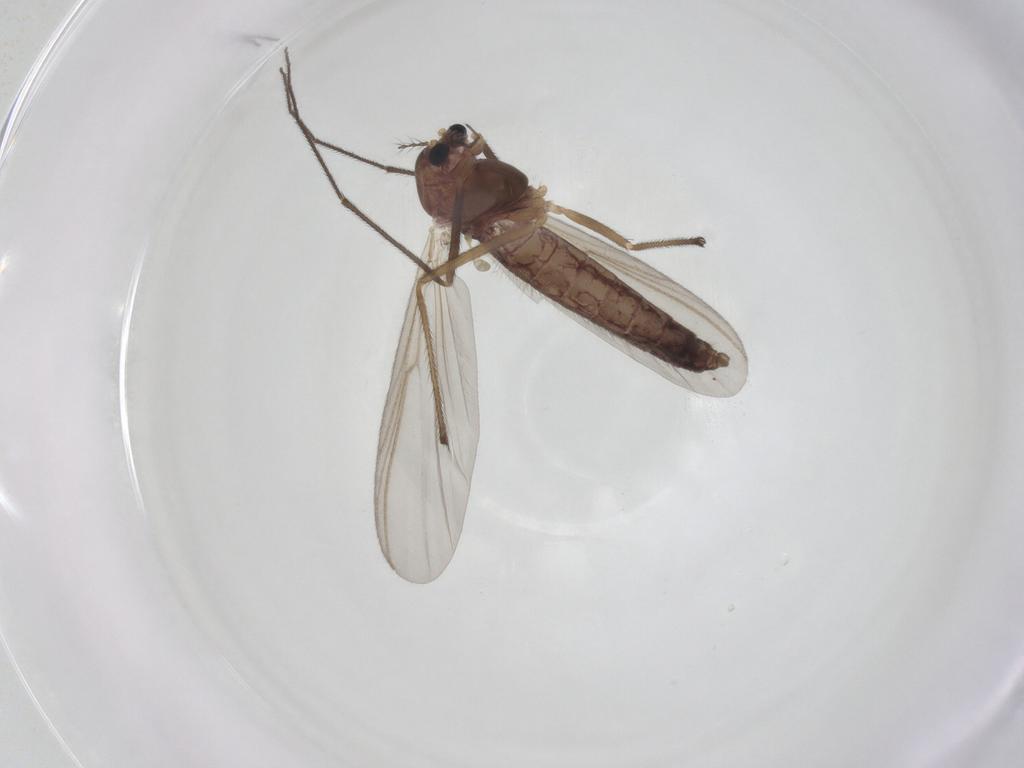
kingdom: Animalia
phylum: Arthropoda
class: Insecta
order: Diptera
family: Chironomidae
